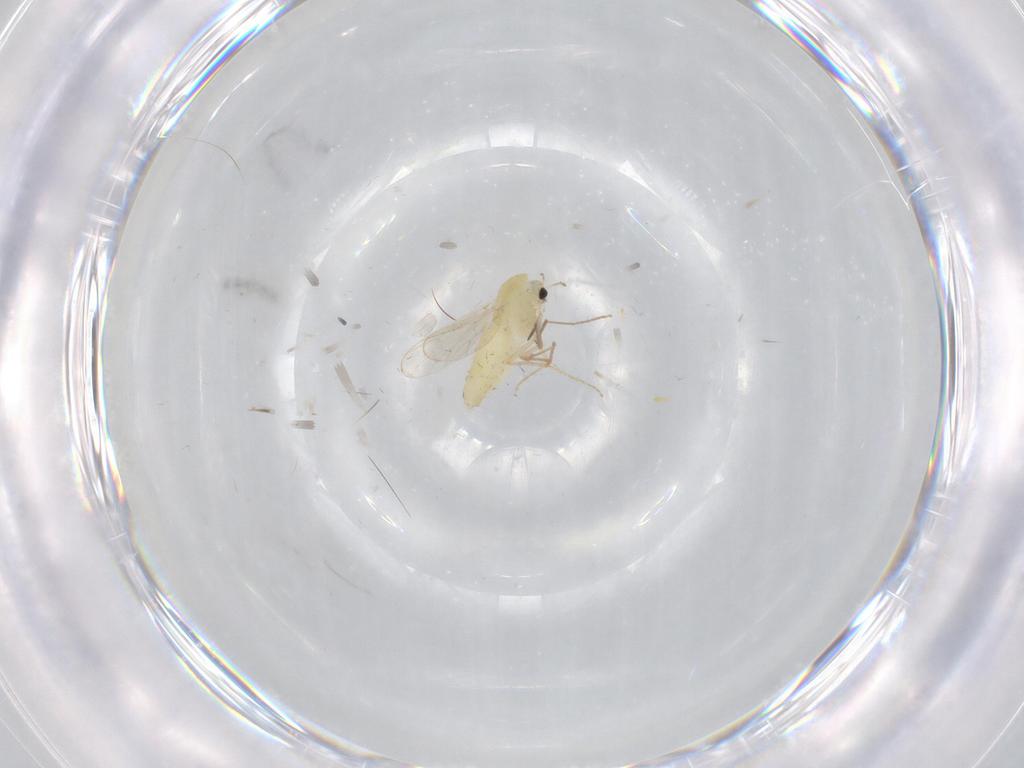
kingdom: Animalia
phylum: Arthropoda
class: Insecta
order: Diptera
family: Chironomidae
